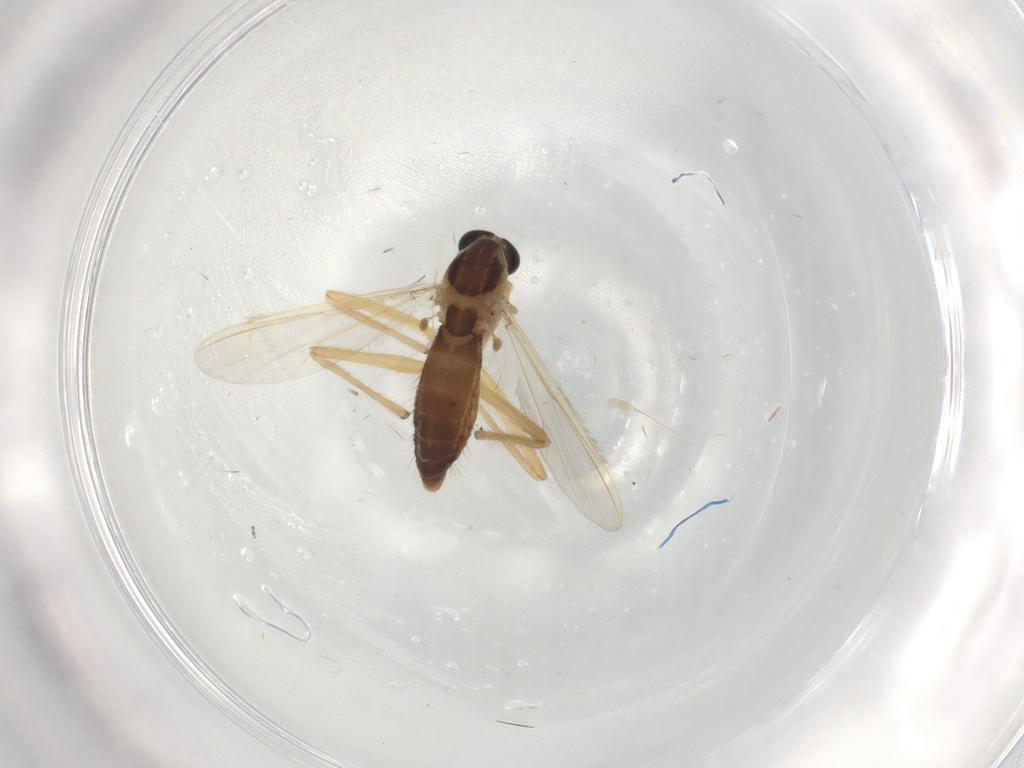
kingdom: Animalia
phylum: Arthropoda
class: Insecta
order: Diptera
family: Chironomidae
